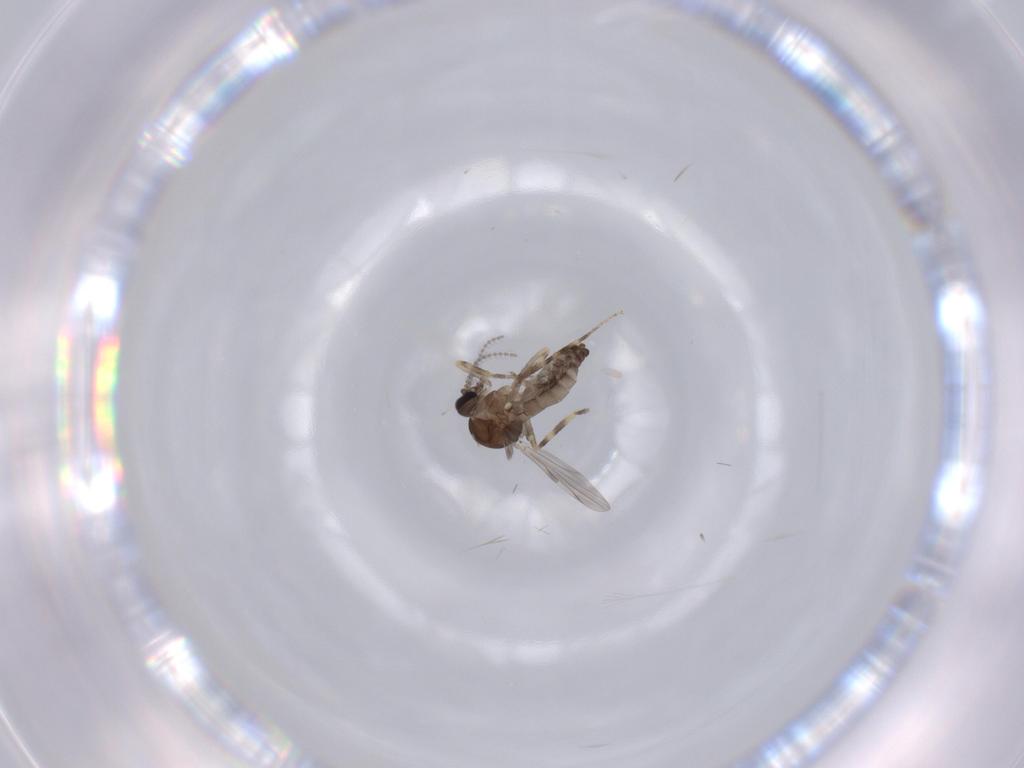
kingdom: Animalia
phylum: Arthropoda
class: Insecta
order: Diptera
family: Ceratopogonidae
